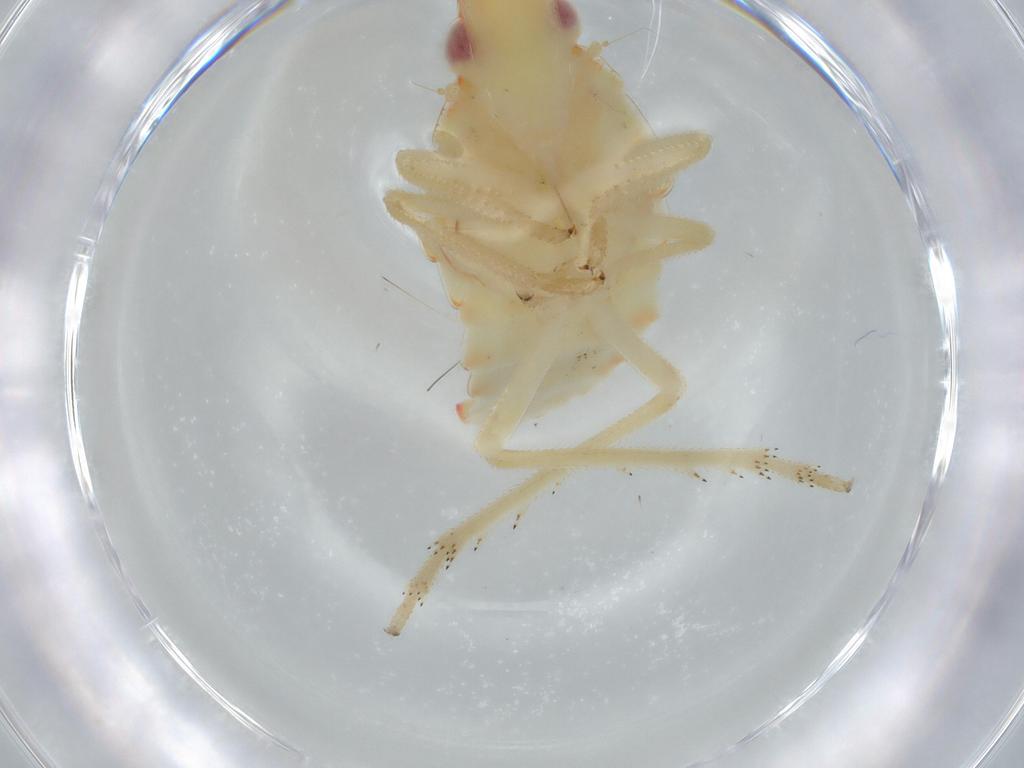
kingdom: Animalia
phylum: Arthropoda
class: Insecta
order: Hemiptera
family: Tropiduchidae
